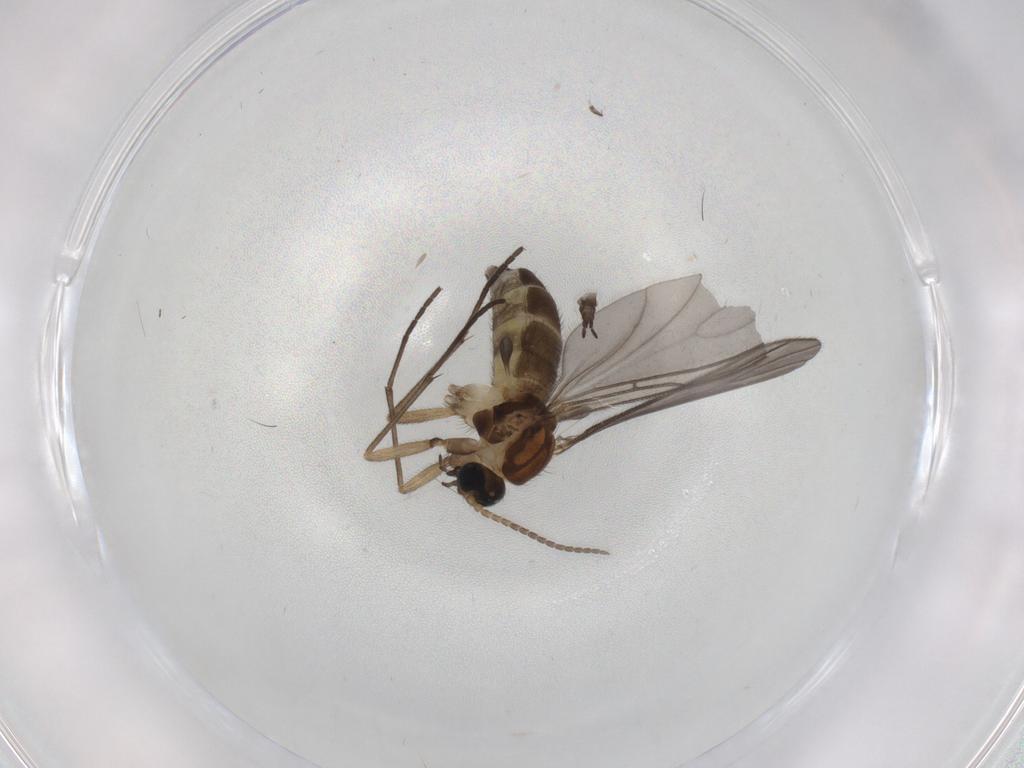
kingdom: Animalia
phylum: Arthropoda
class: Insecta
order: Diptera
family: Sciaridae
